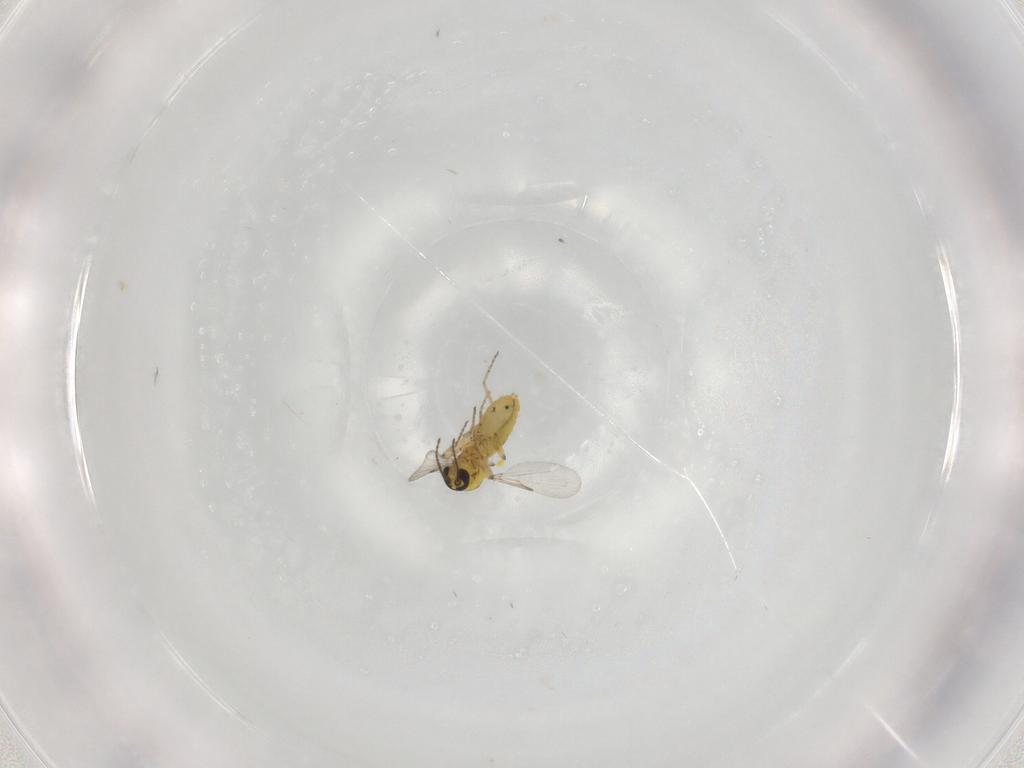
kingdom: Animalia
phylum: Arthropoda
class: Insecta
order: Diptera
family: Ceratopogonidae
